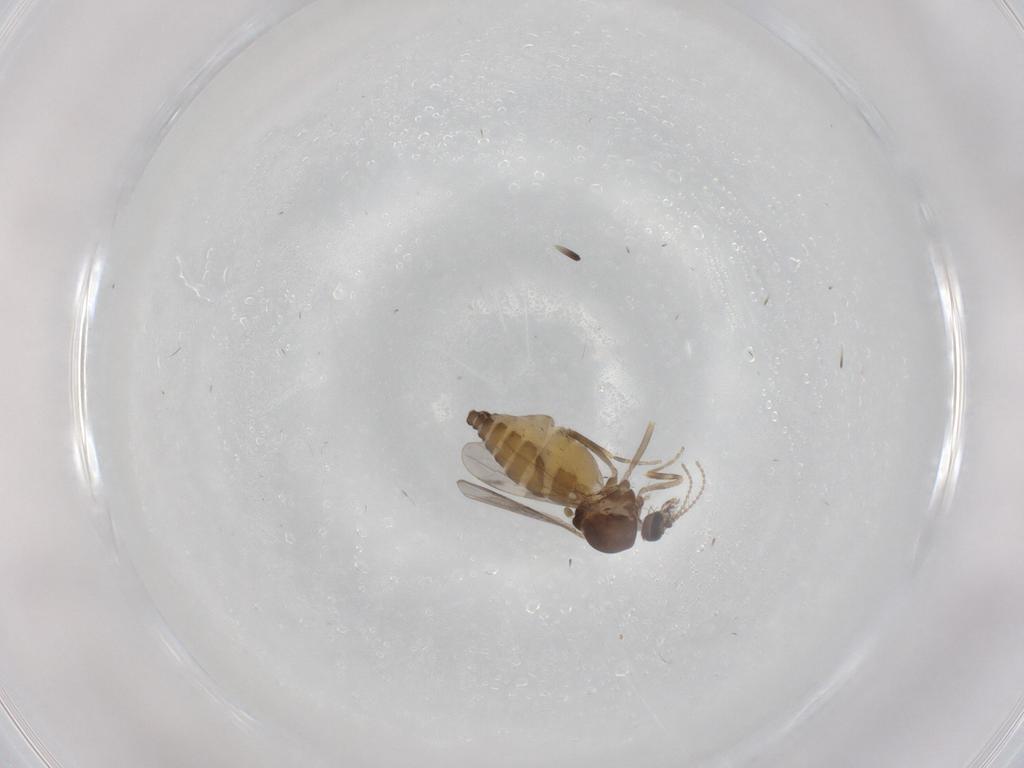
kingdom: Animalia
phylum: Arthropoda
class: Insecta
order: Diptera
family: Ceratopogonidae
